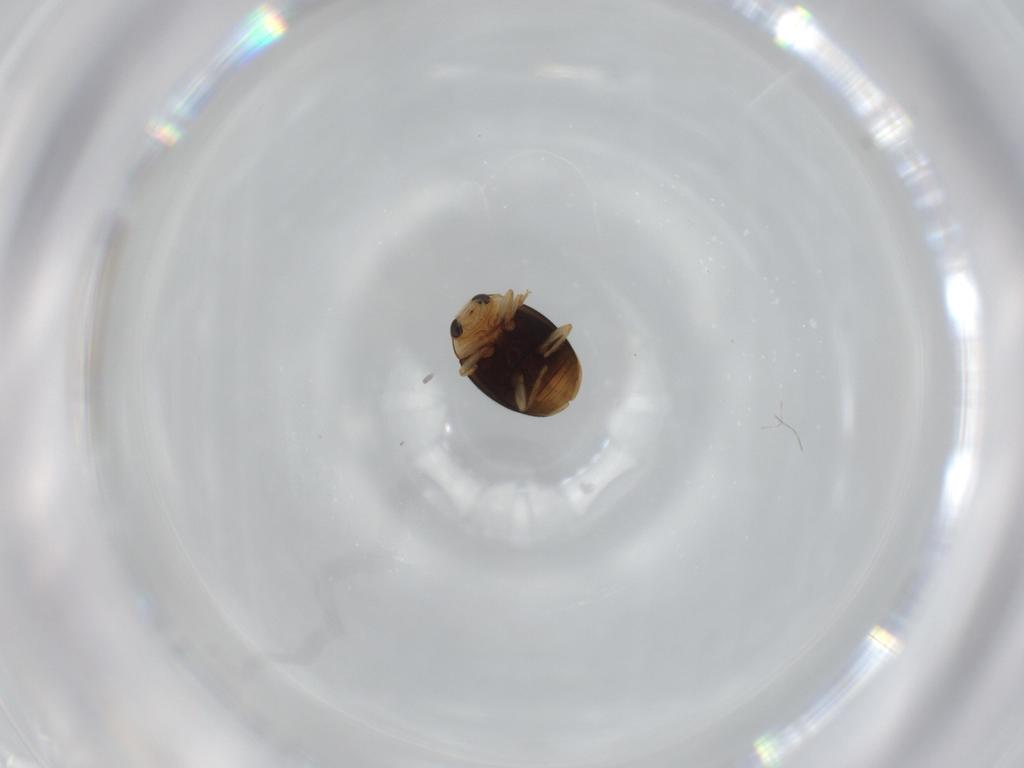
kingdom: Animalia
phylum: Arthropoda
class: Insecta
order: Coleoptera
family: Coccinellidae
